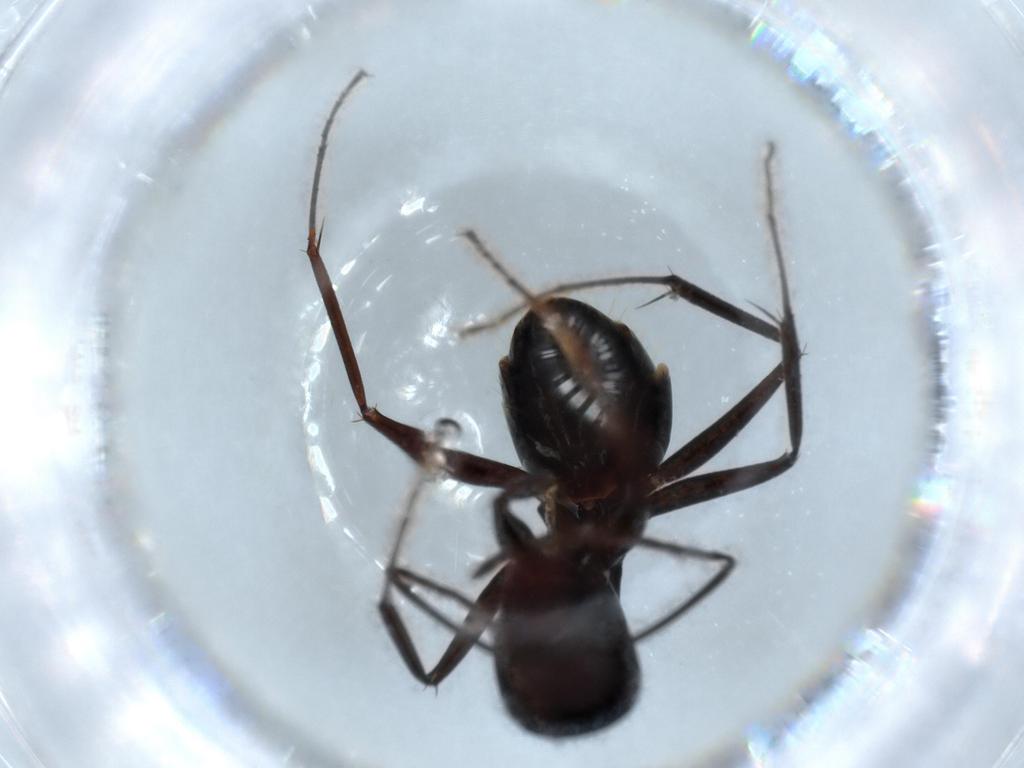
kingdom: Animalia
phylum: Arthropoda
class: Insecta
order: Hymenoptera
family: Formicidae
